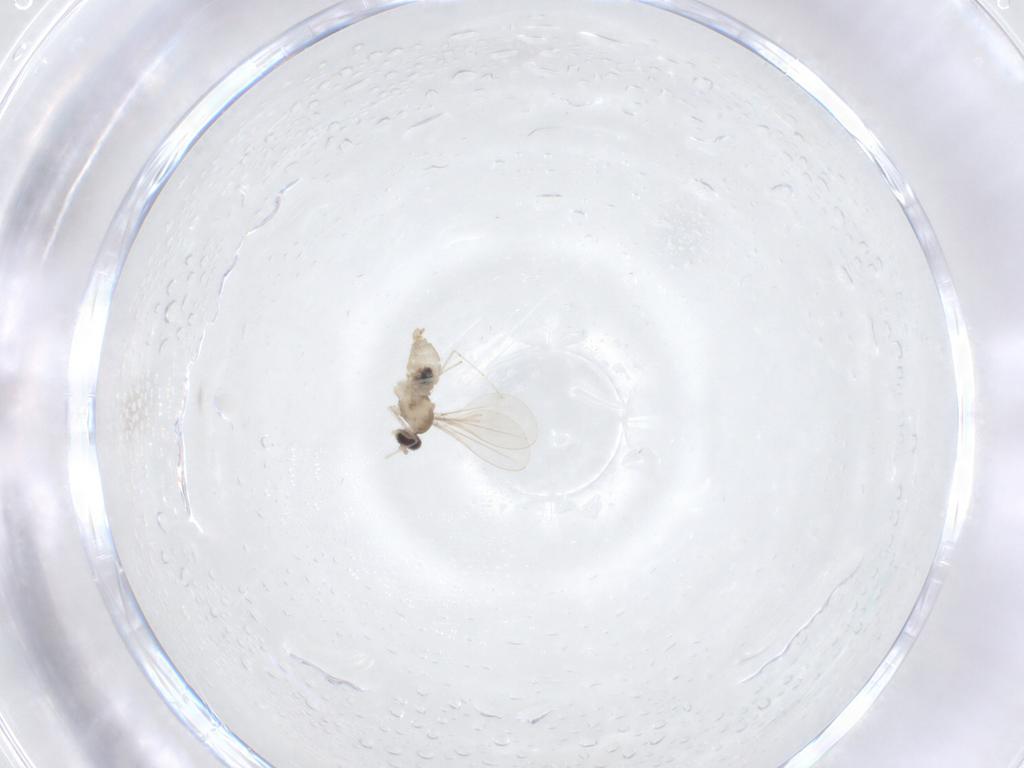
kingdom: Animalia
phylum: Arthropoda
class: Insecta
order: Diptera
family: Cecidomyiidae
